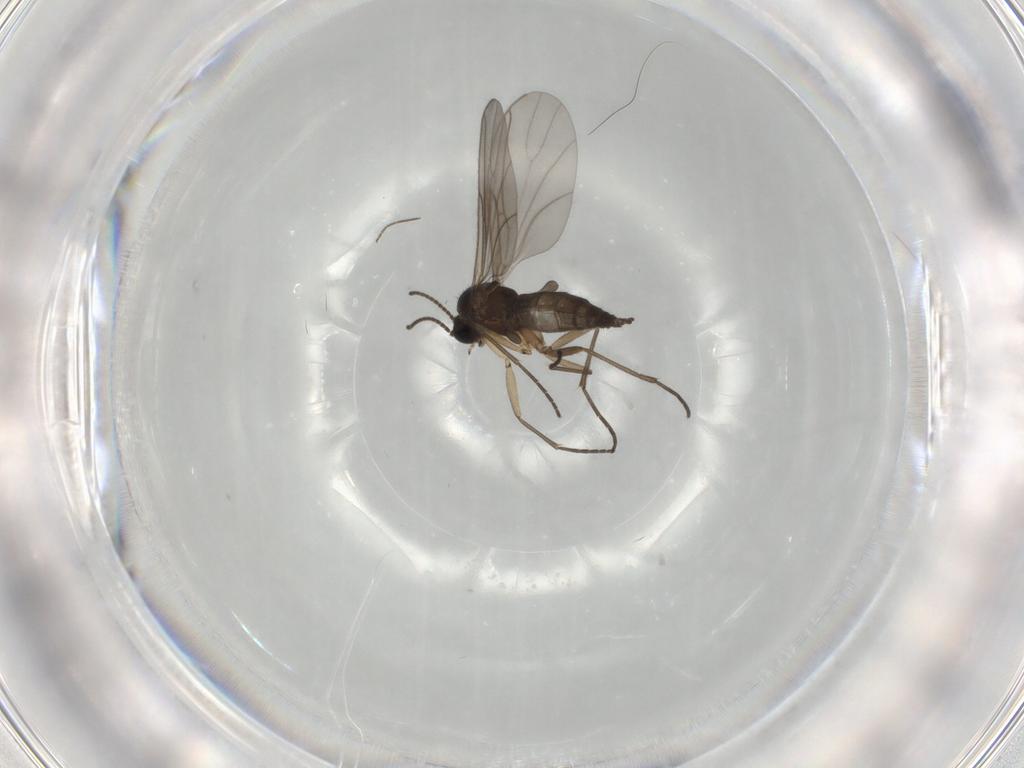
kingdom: Animalia
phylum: Arthropoda
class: Insecta
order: Diptera
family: Sciaridae
